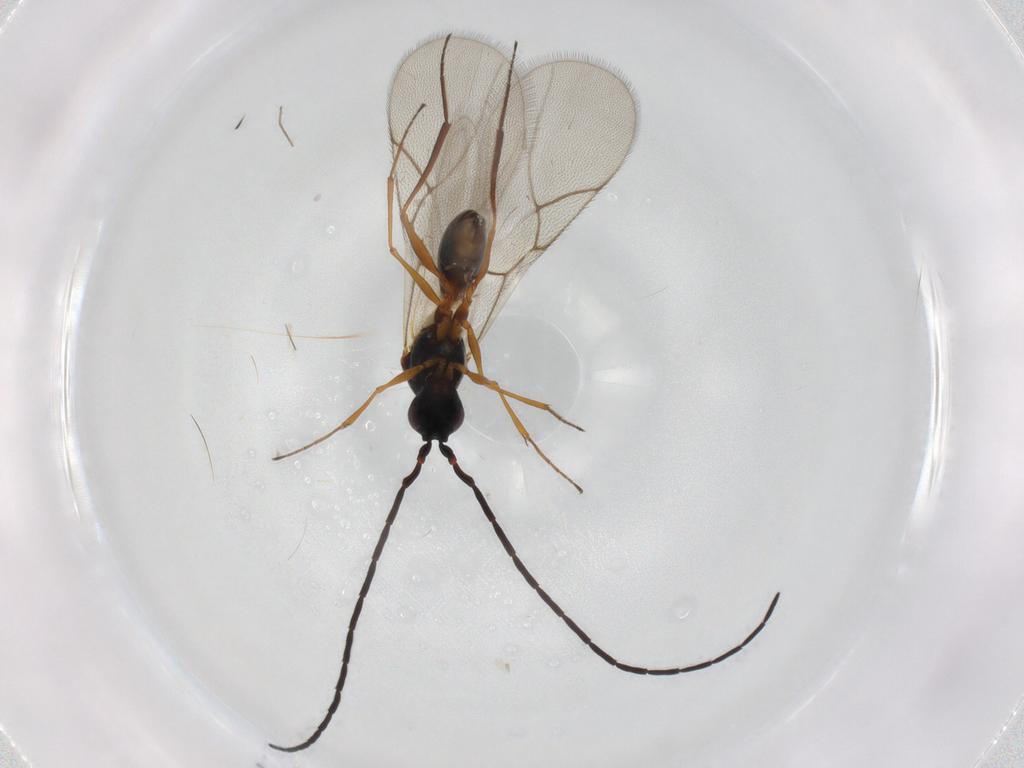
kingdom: Animalia
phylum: Arthropoda
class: Insecta
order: Hymenoptera
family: Figitidae
